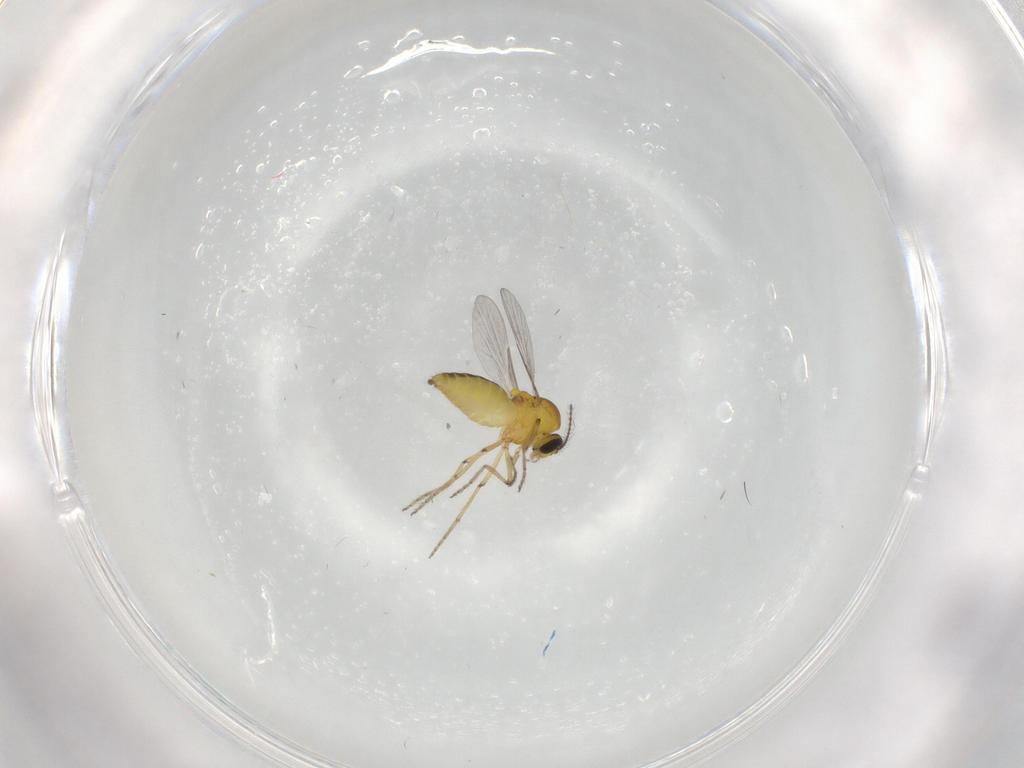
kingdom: Animalia
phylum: Arthropoda
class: Insecta
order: Diptera
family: Ceratopogonidae
